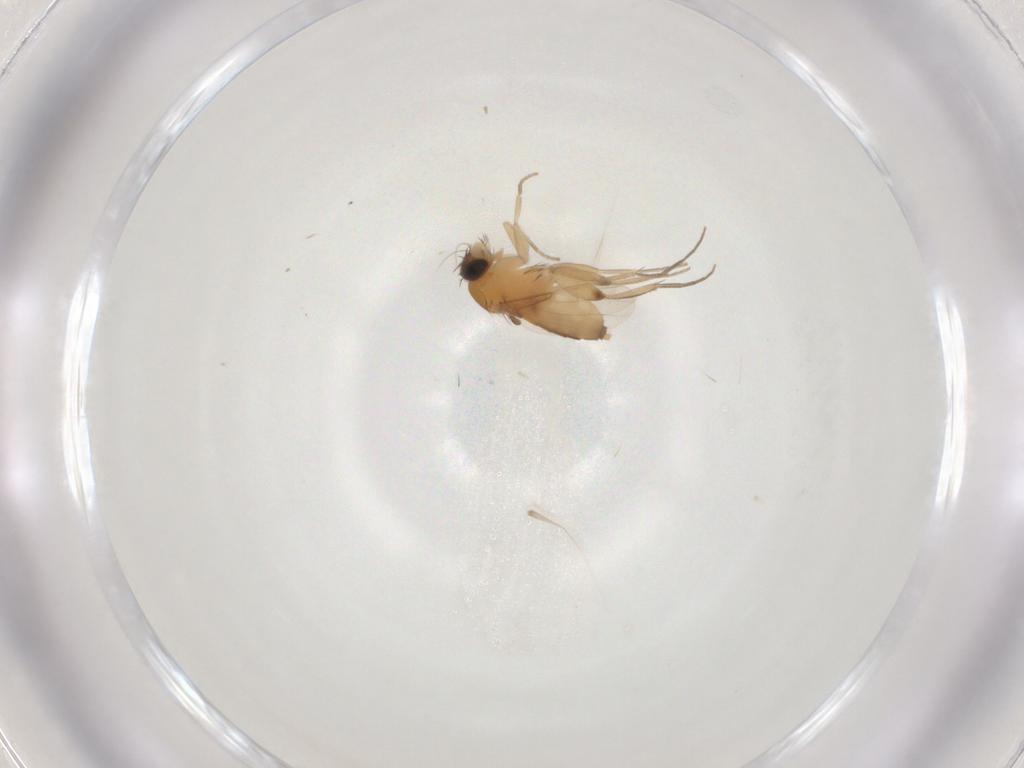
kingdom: Animalia
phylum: Arthropoda
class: Insecta
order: Diptera
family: Tabanidae
